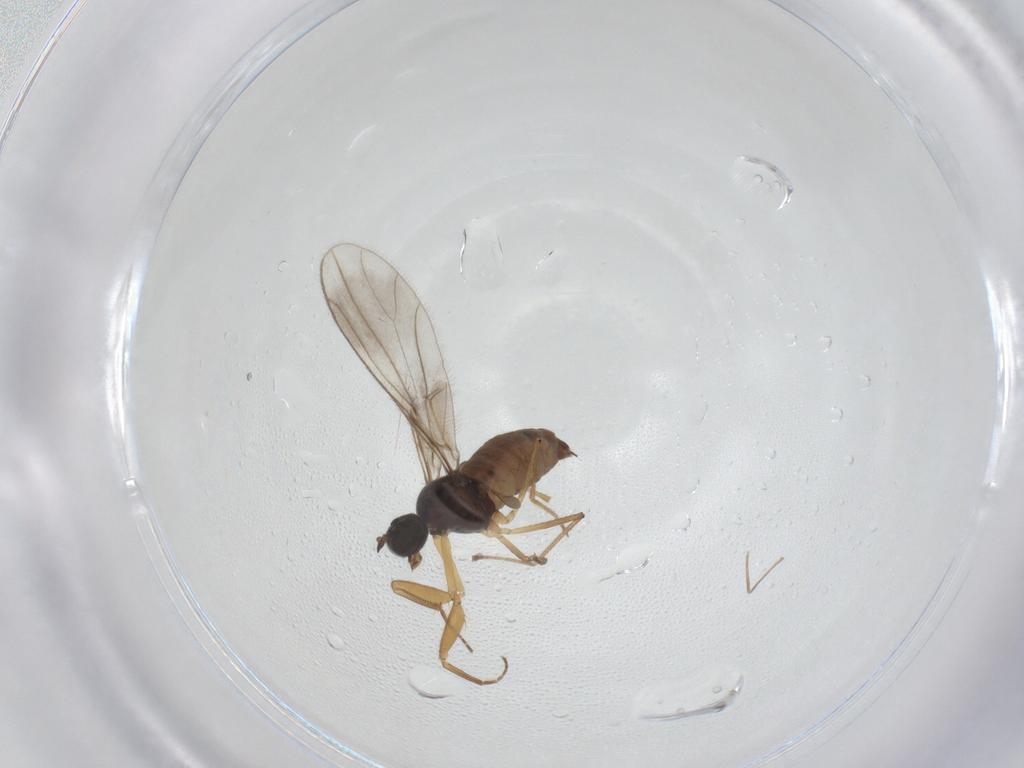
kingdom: Animalia
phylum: Arthropoda
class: Insecta
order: Diptera
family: Empididae
